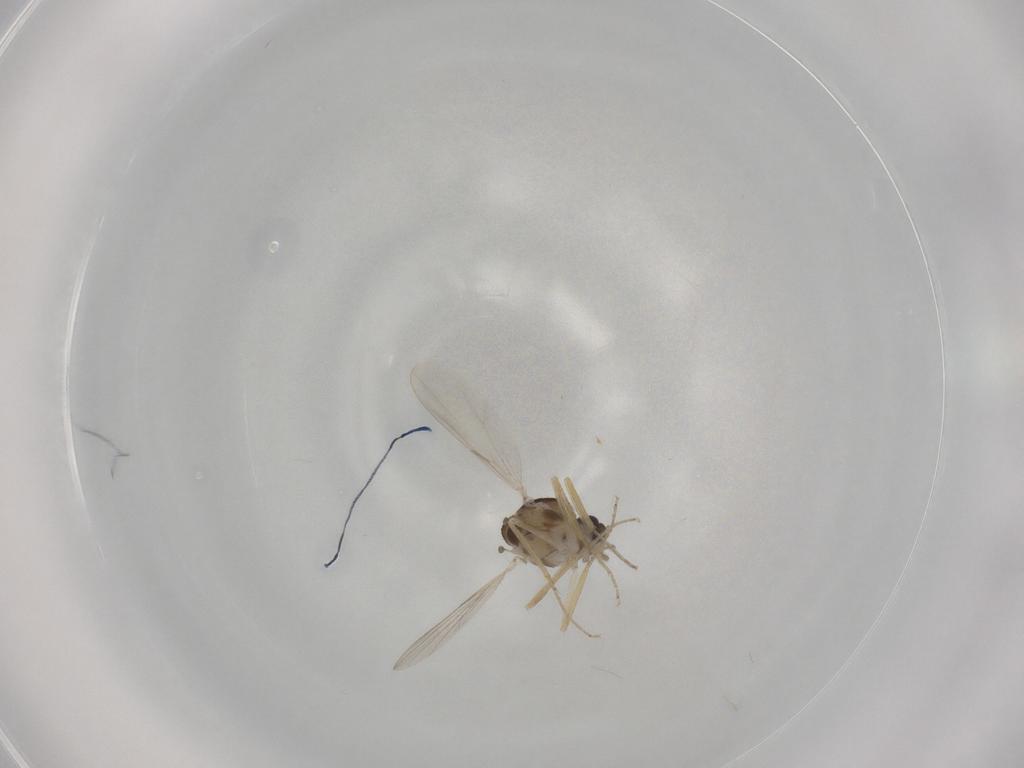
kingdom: Animalia
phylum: Arthropoda
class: Insecta
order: Diptera
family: Ceratopogonidae
